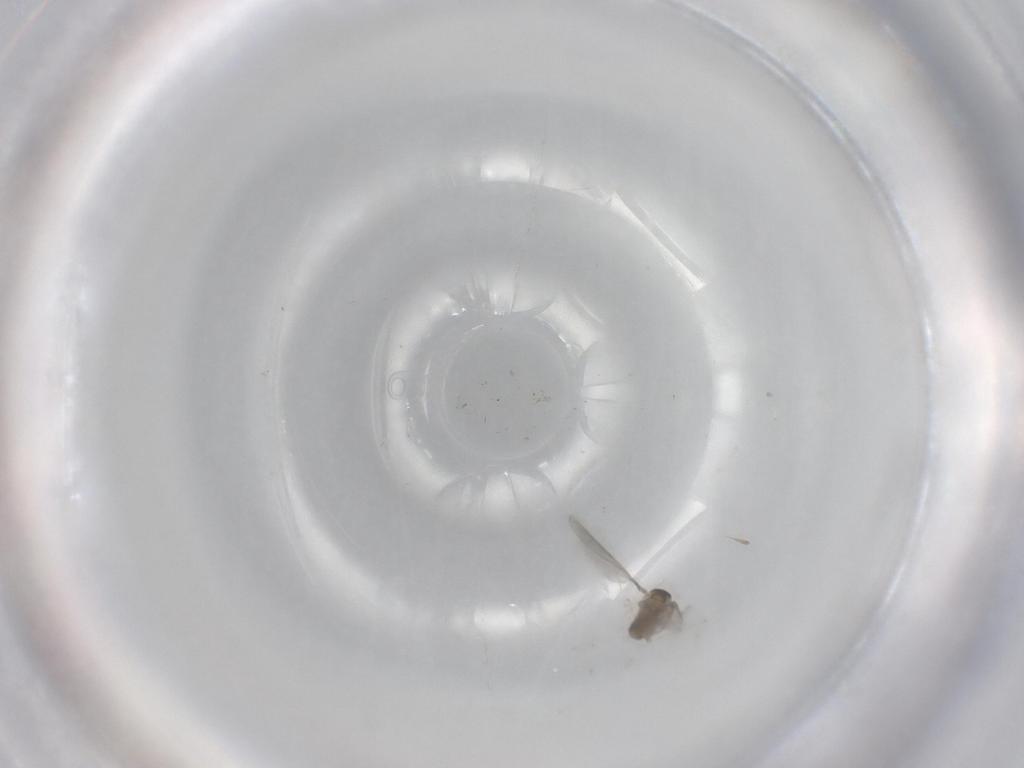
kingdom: Animalia
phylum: Arthropoda
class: Insecta
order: Diptera
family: Cecidomyiidae
